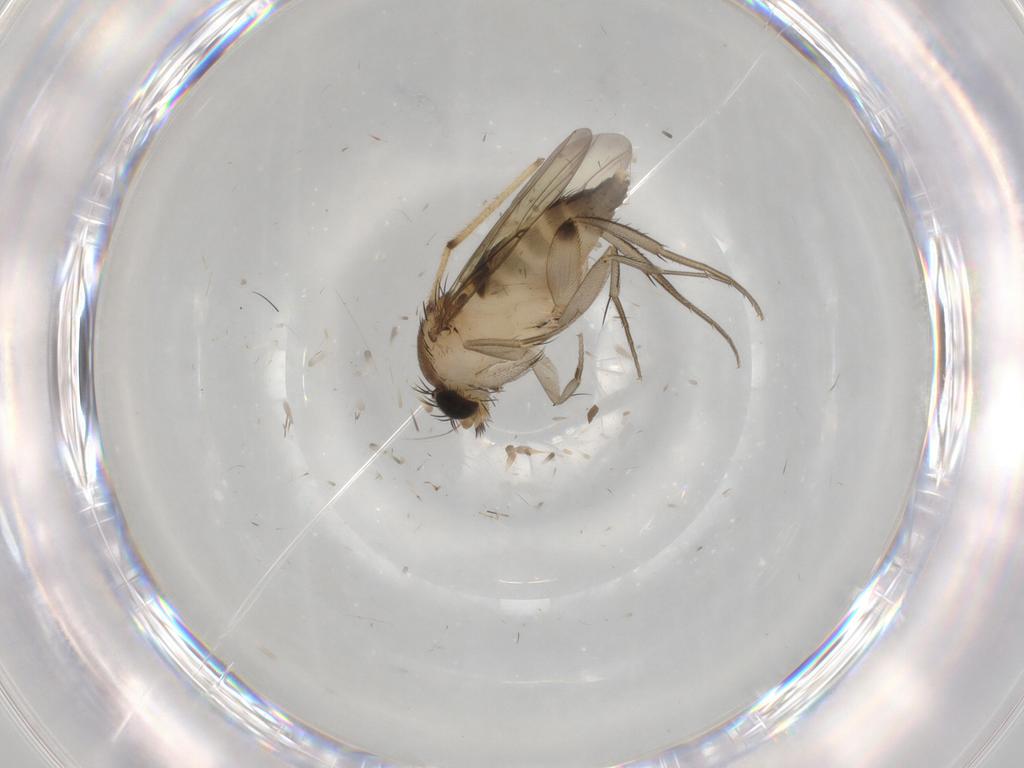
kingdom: Animalia
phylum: Arthropoda
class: Insecta
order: Diptera
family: Phoridae
